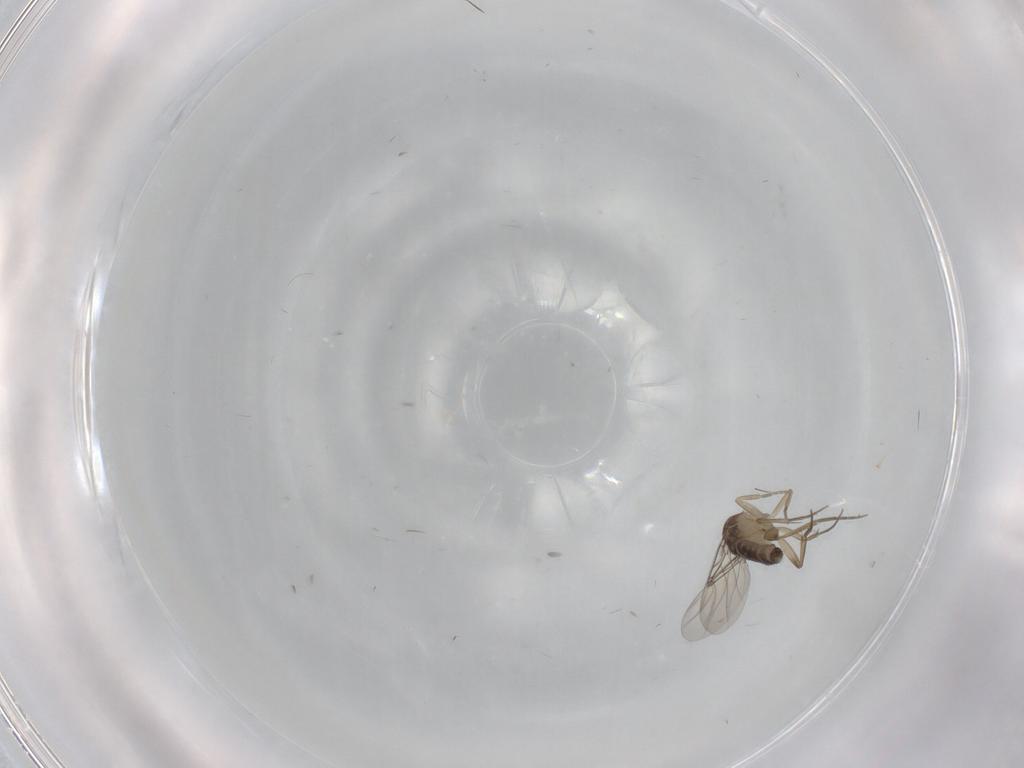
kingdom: Animalia
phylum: Arthropoda
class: Insecta
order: Diptera
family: Cecidomyiidae
